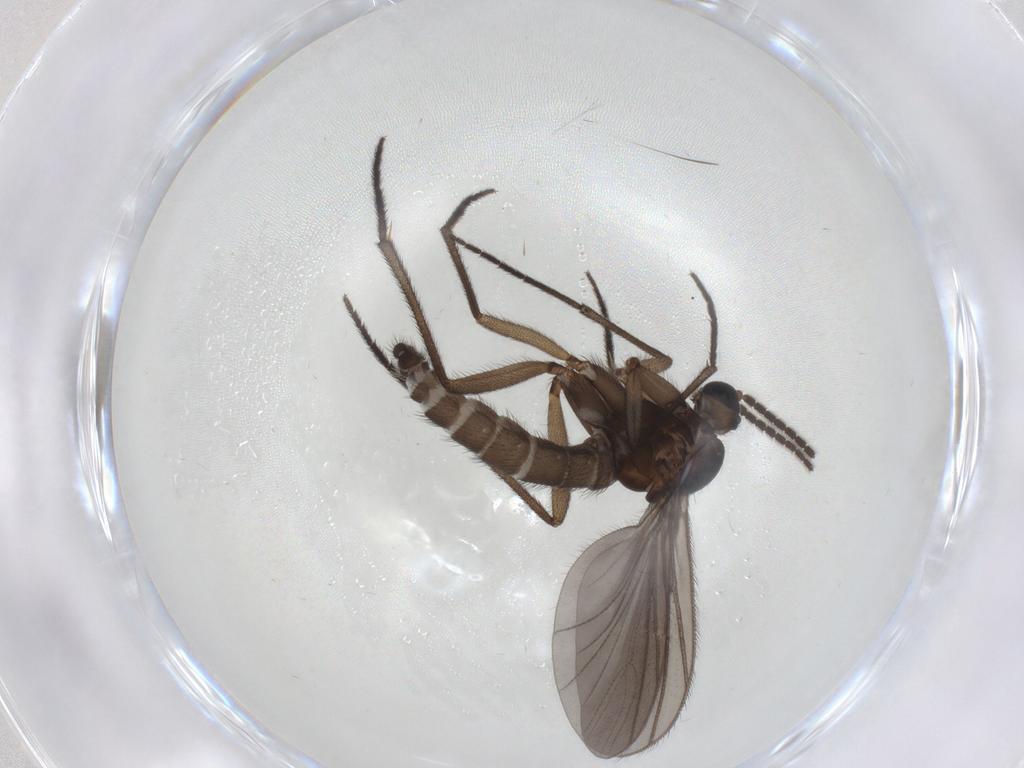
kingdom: Animalia
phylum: Arthropoda
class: Insecta
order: Diptera
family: Sciaridae
